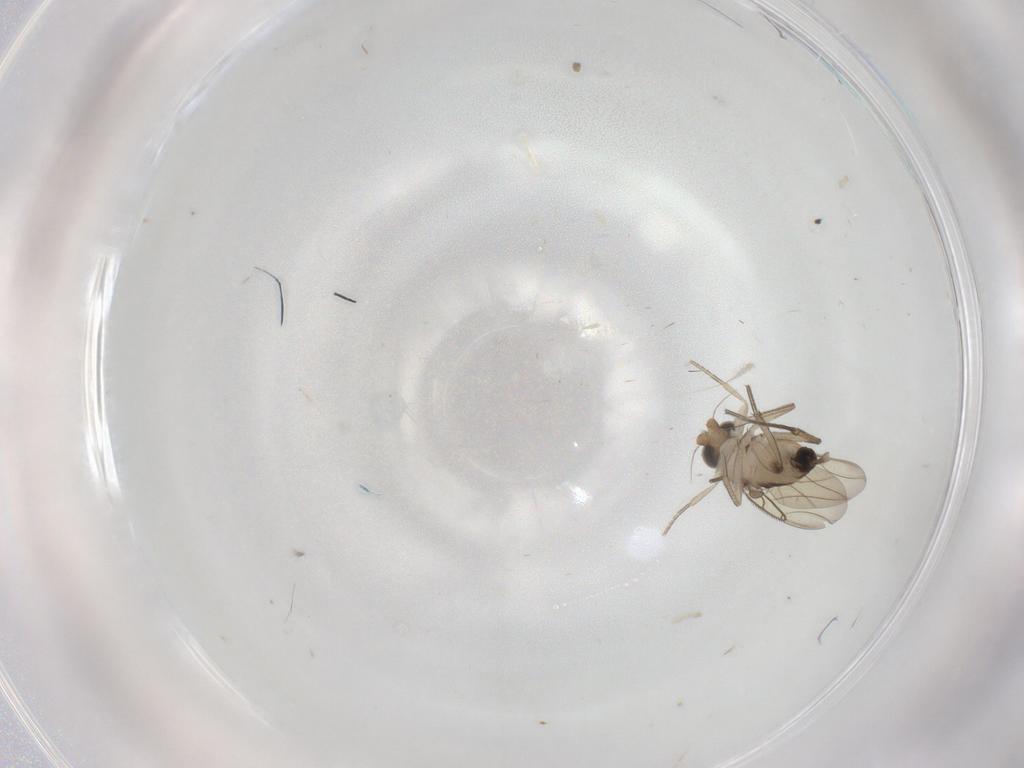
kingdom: Animalia
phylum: Arthropoda
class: Insecta
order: Diptera
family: Phoridae
